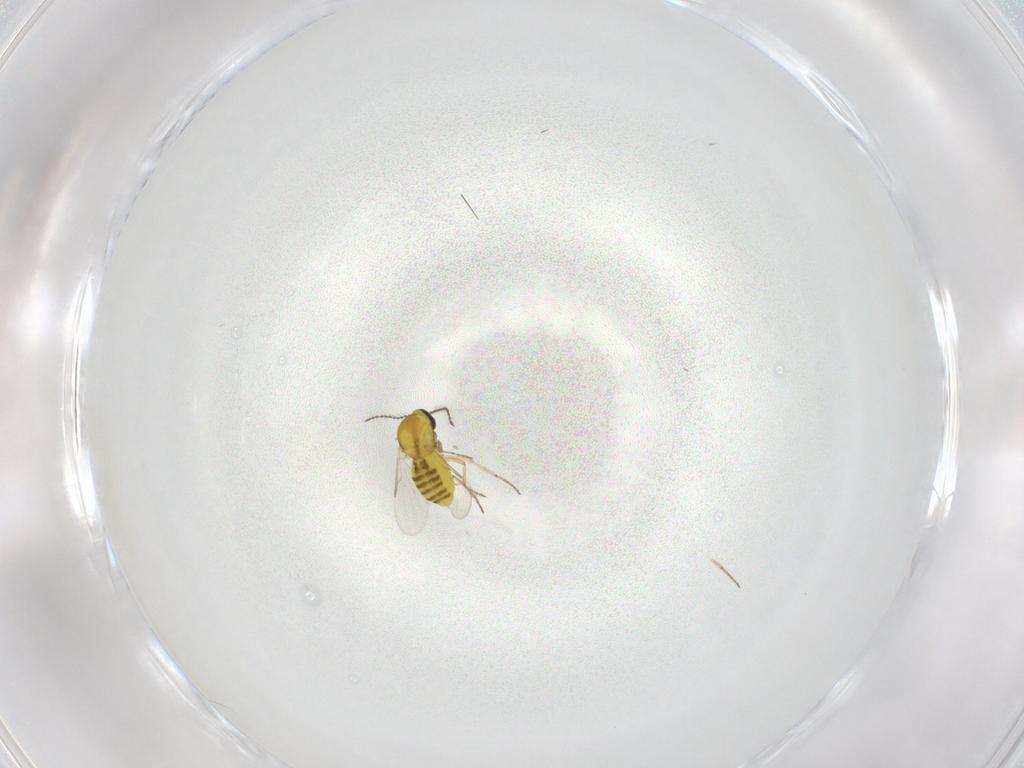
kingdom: Animalia
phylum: Arthropoda
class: Insecta
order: Diptera
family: Ceratopogonidae
